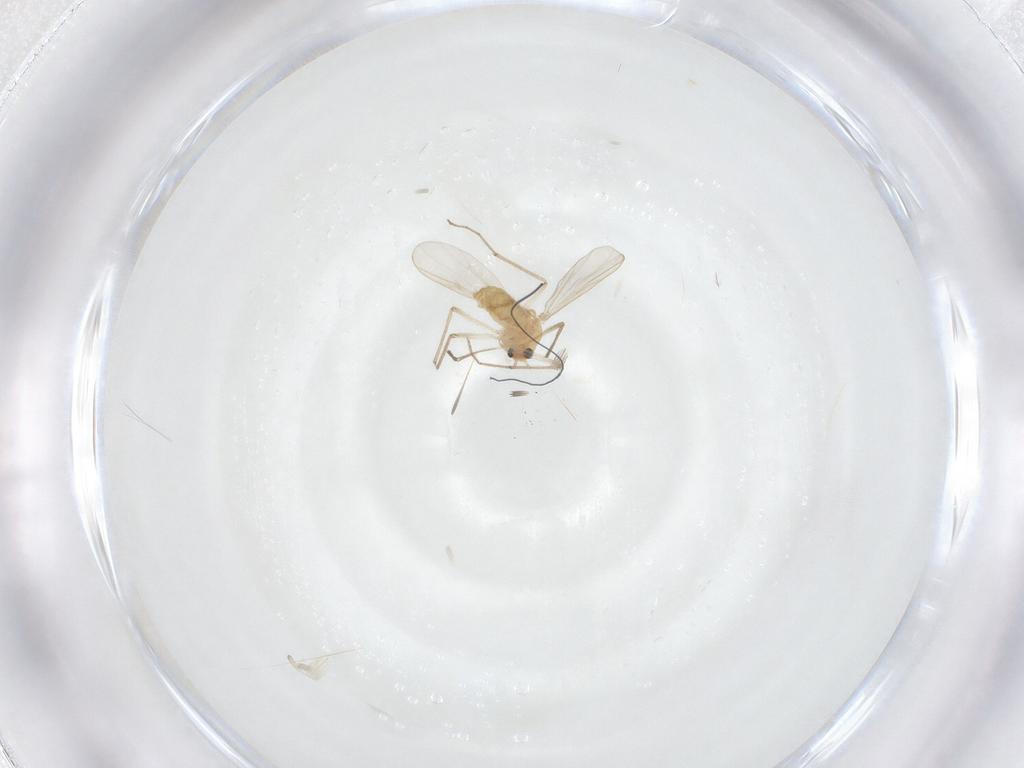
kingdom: Animalia
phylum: Arthropoda
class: Insecta
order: Diptera
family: Chironomidae
